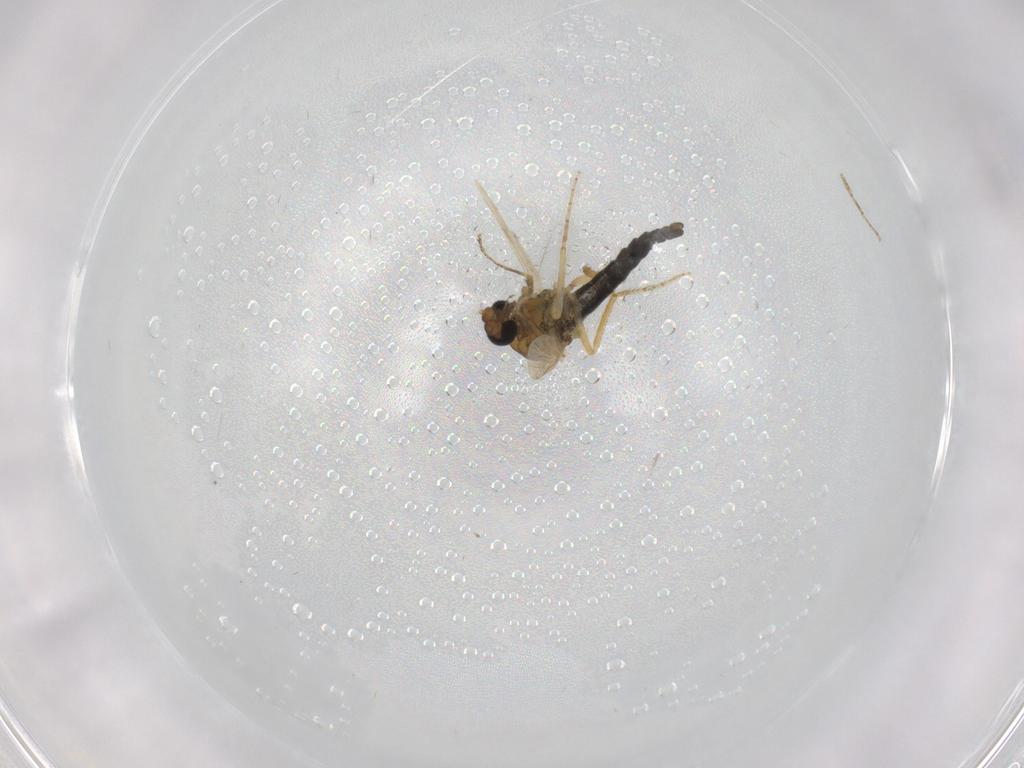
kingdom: Animalia
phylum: Arthropoda
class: Insecta
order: Diptera
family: Ceratopogonidae
